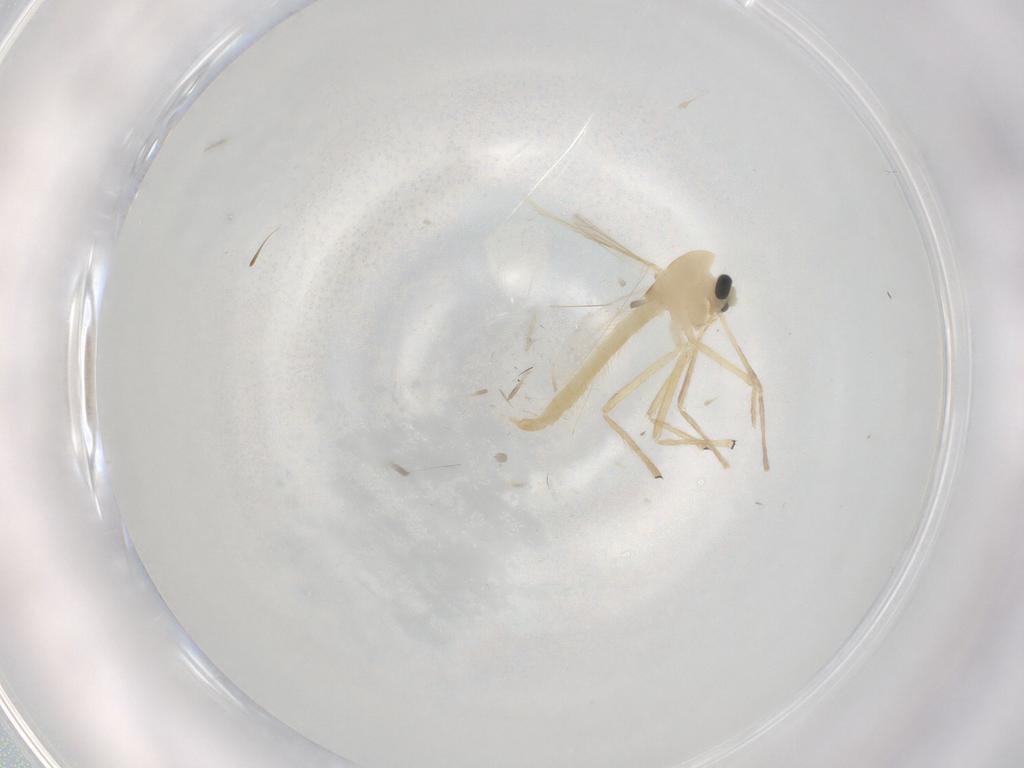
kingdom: Animalia
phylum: Arthropoda
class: Insecta
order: Diptera
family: Chironomidae
